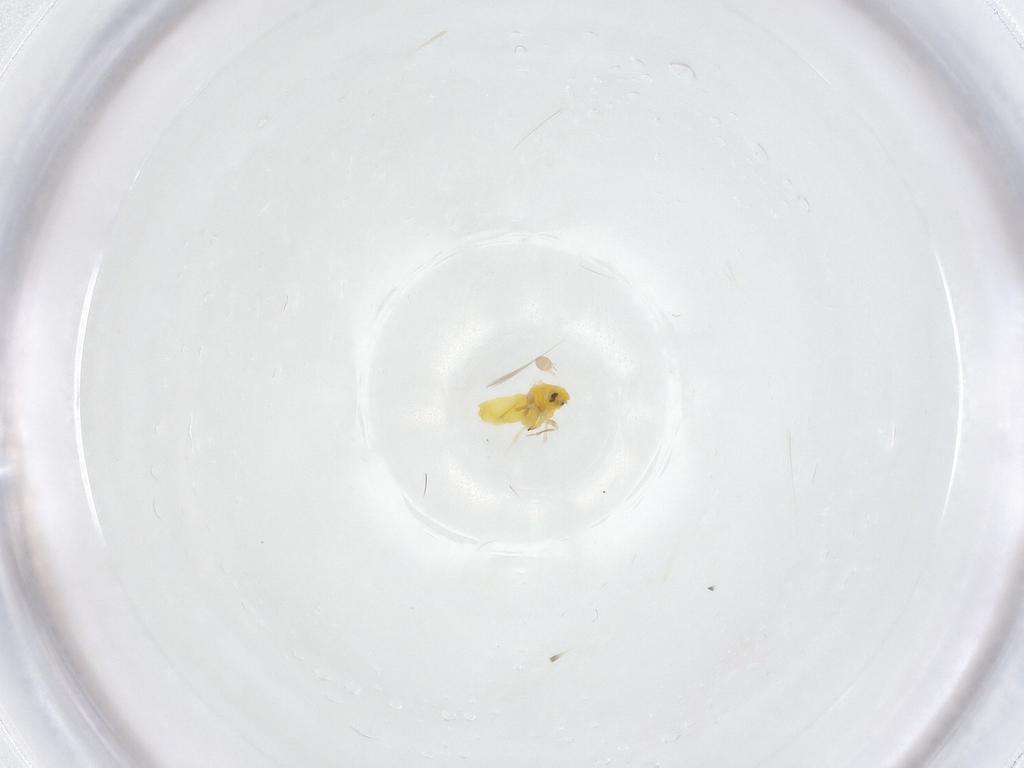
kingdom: Animalia
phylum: Arthropoda
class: Insecta
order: Hemiptera
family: Aleyrodidae
